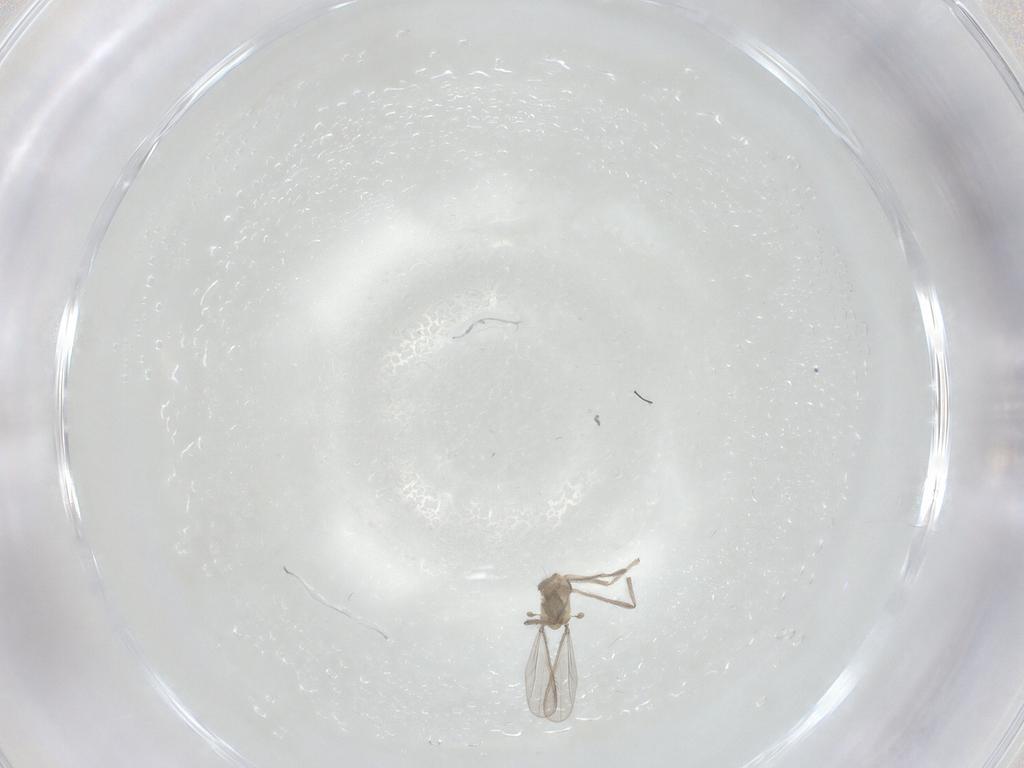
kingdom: Animalia
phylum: Arthropoda
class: Insecta
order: Diptera
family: Chironomidae
